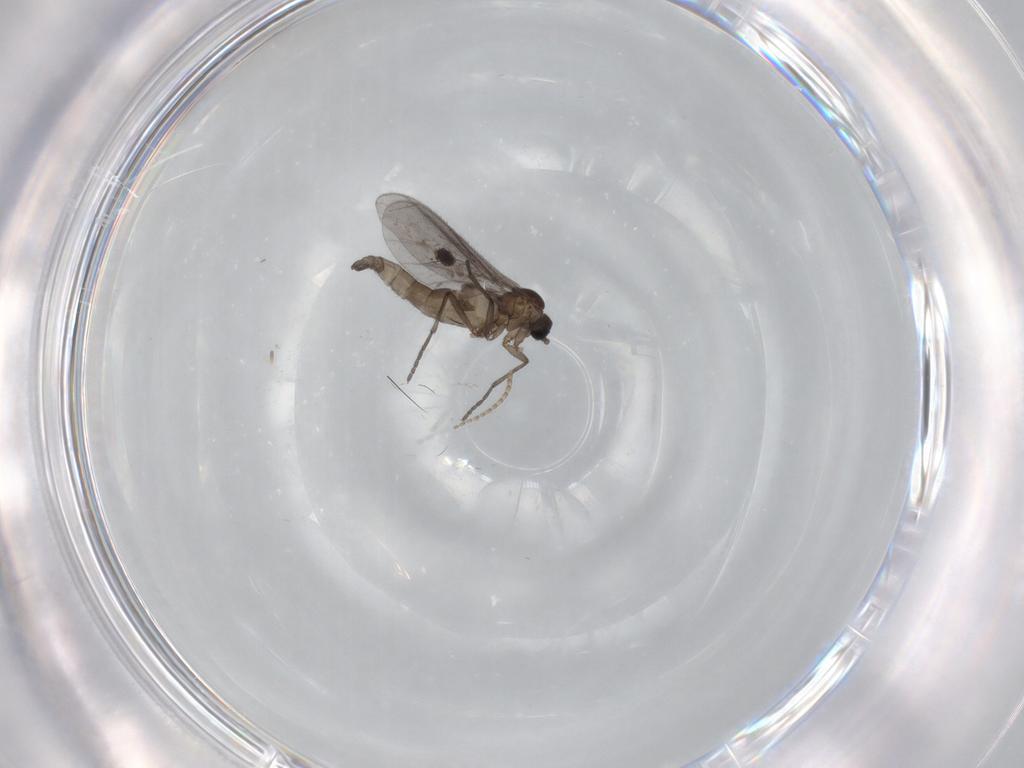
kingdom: Animalia
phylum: Arthropoda
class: Insecta
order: Diptera
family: Sciaridae
